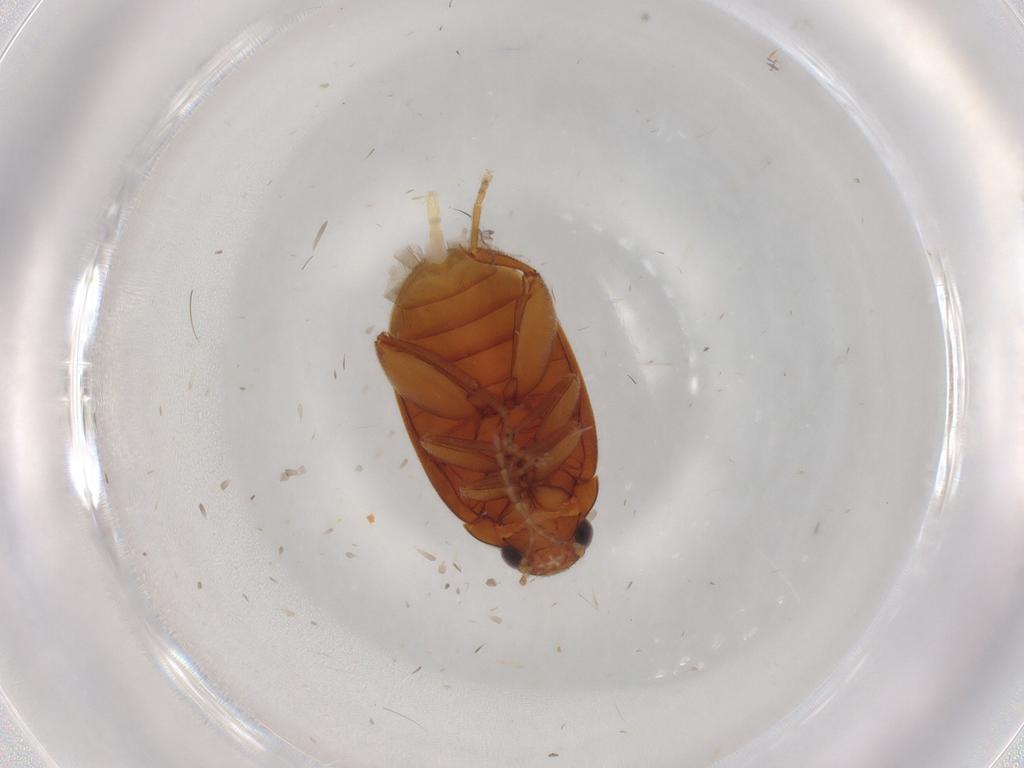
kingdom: Animalia
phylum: Arthropoda
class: Insecta
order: Coleoptera
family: Scirtidae
